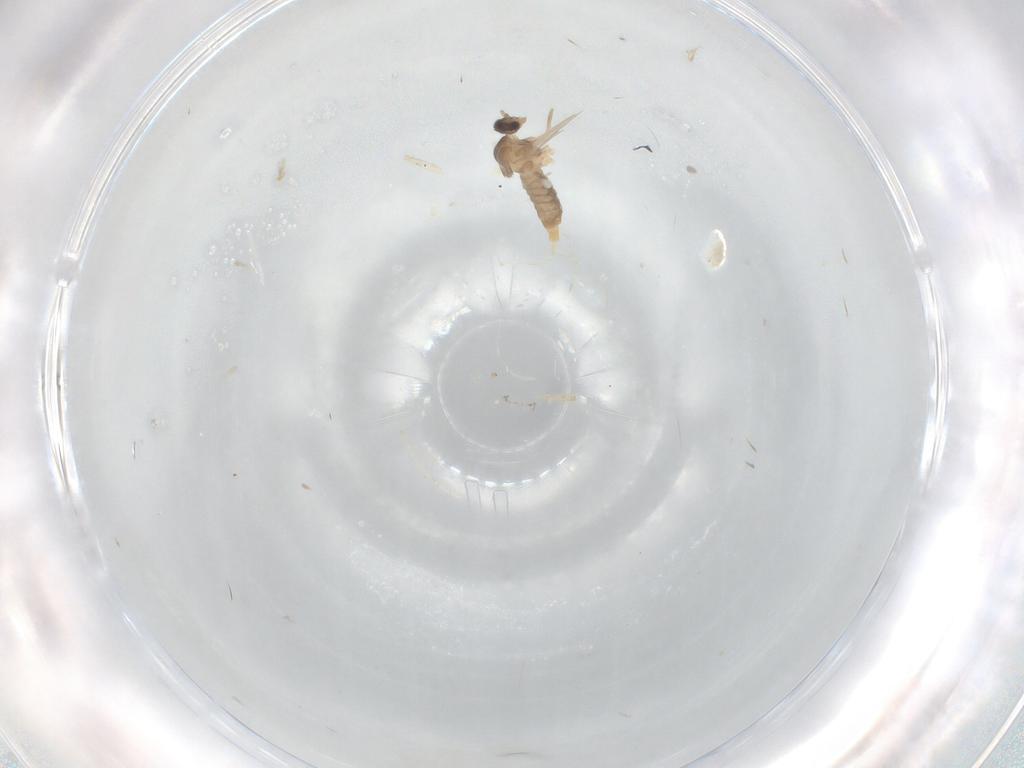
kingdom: Animalia
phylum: Arthropoda
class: Insecta
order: Diptera
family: Cecidomyiidae
